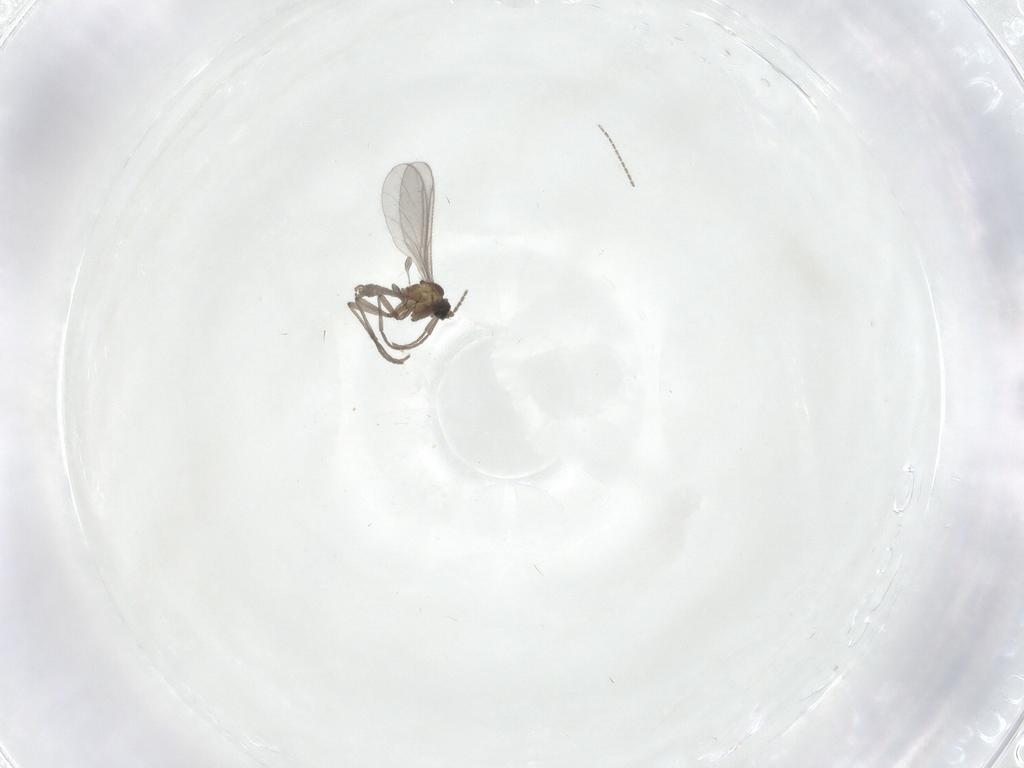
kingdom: Animalia
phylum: Arthropoda
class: Insecta
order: Diptera
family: Sciaridae
